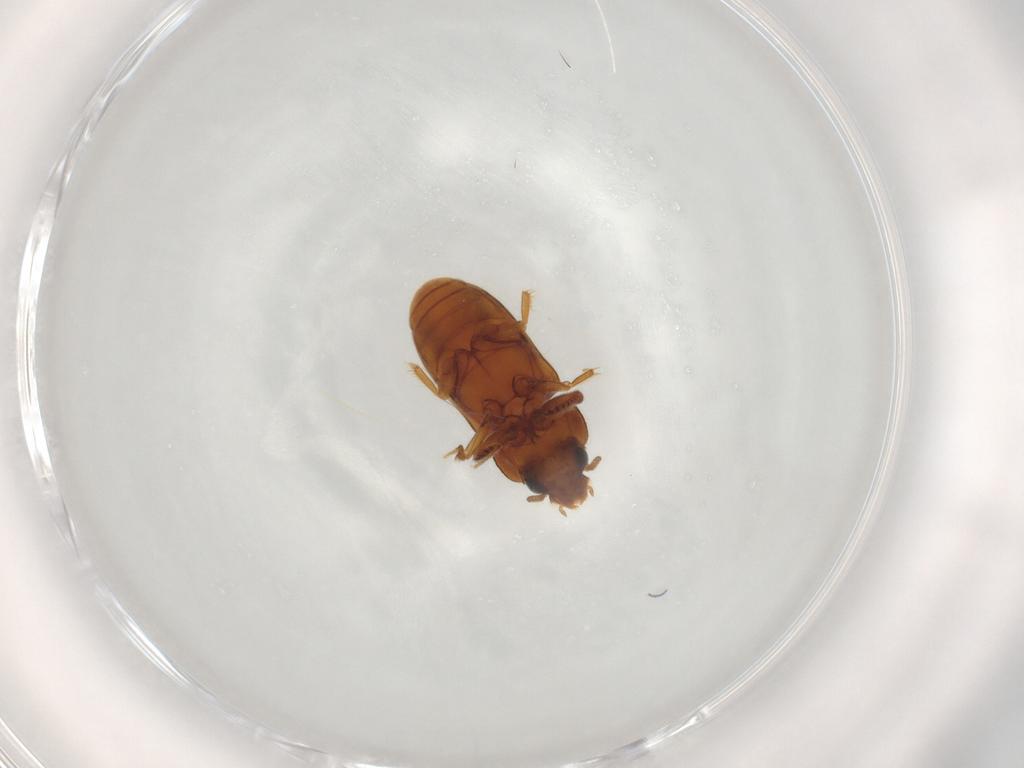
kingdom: Animalia
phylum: Arthropoda
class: Insecta
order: Coleoptera
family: Heteroceridae
